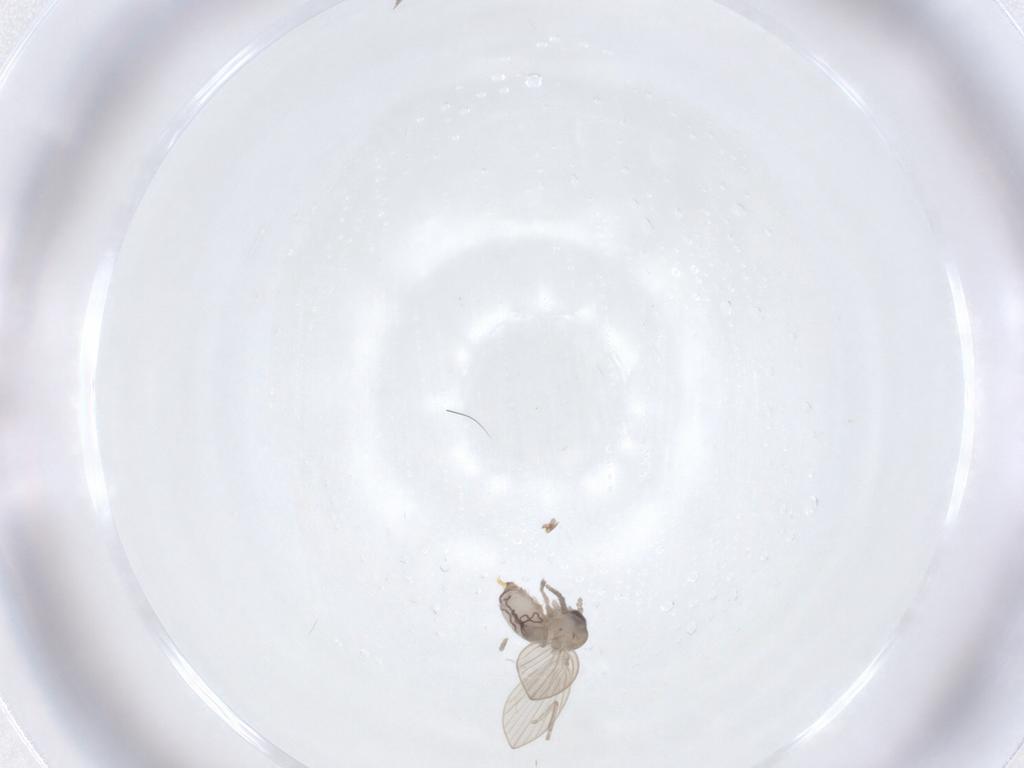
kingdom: Animalia
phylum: Arthropoda
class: Insecta
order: Diptera
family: Psychodidae
